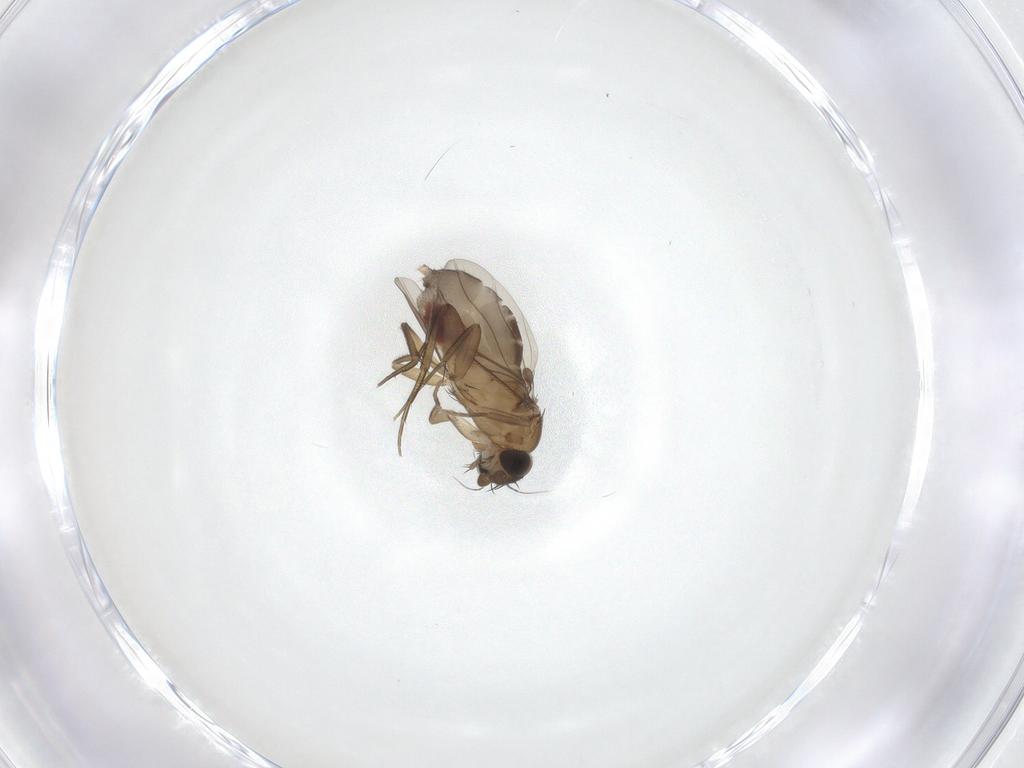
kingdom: Animalia
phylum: Arthropoda
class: Insecta
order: Diptera
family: Phoridae
